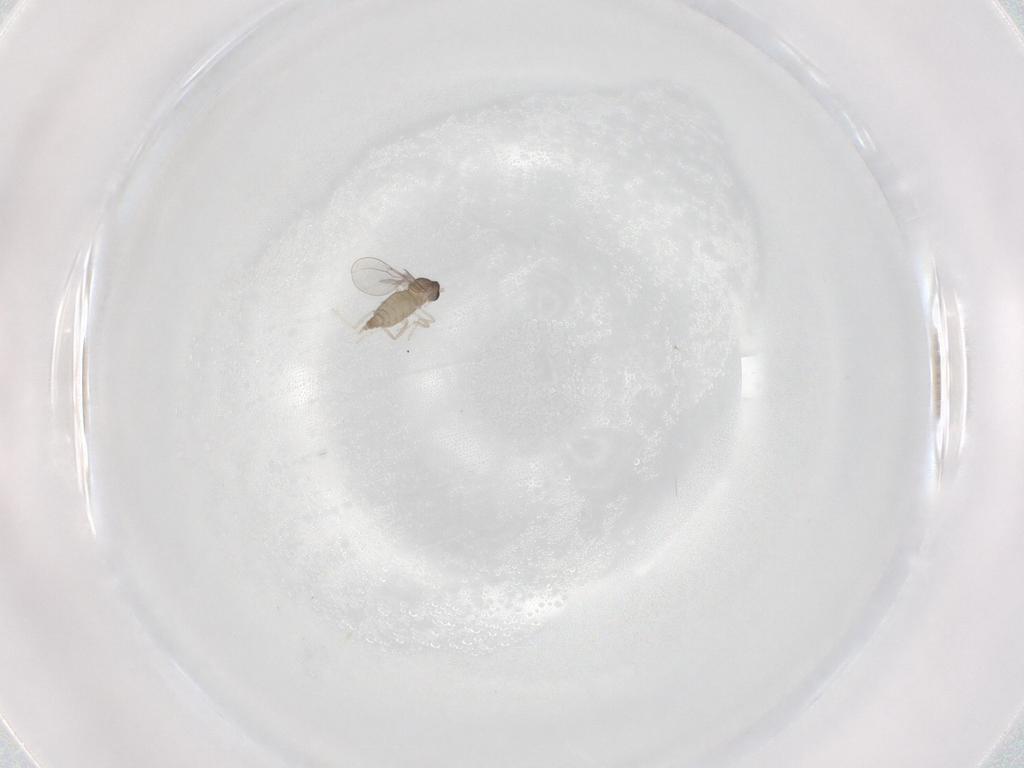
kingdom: Animalia
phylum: Arthropoda
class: Insecta
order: Diptera
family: Cecidomyiidae
